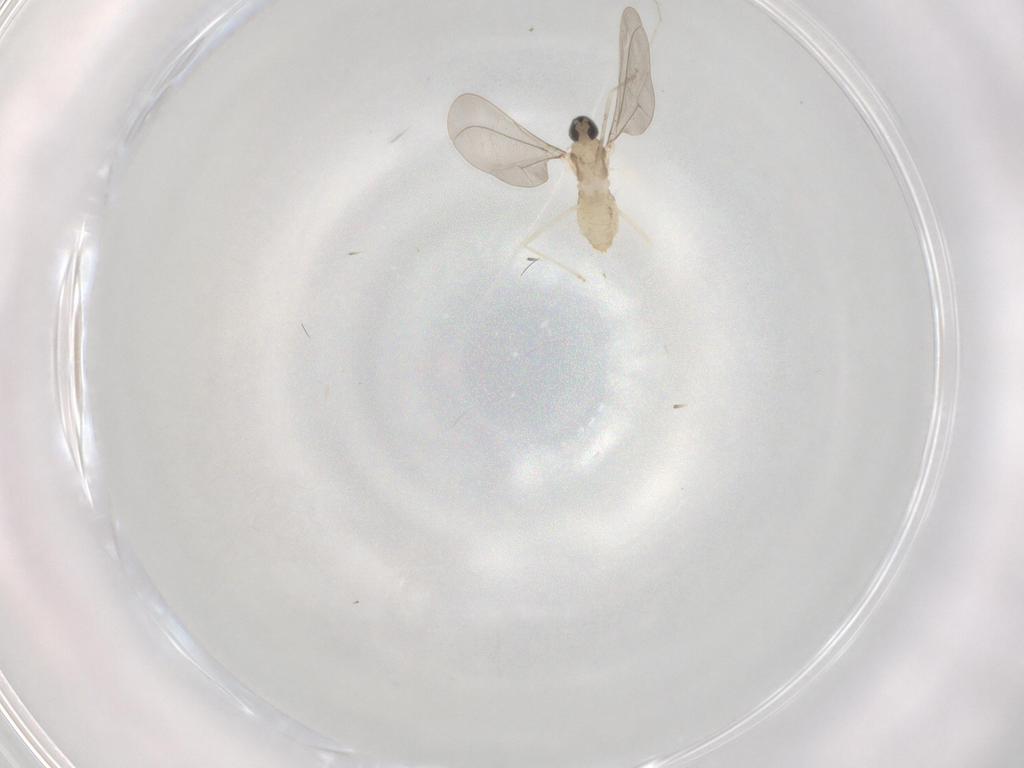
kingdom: Animalia
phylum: Arthropoda
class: Insecta
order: Diptera
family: Cecidomyiidae
